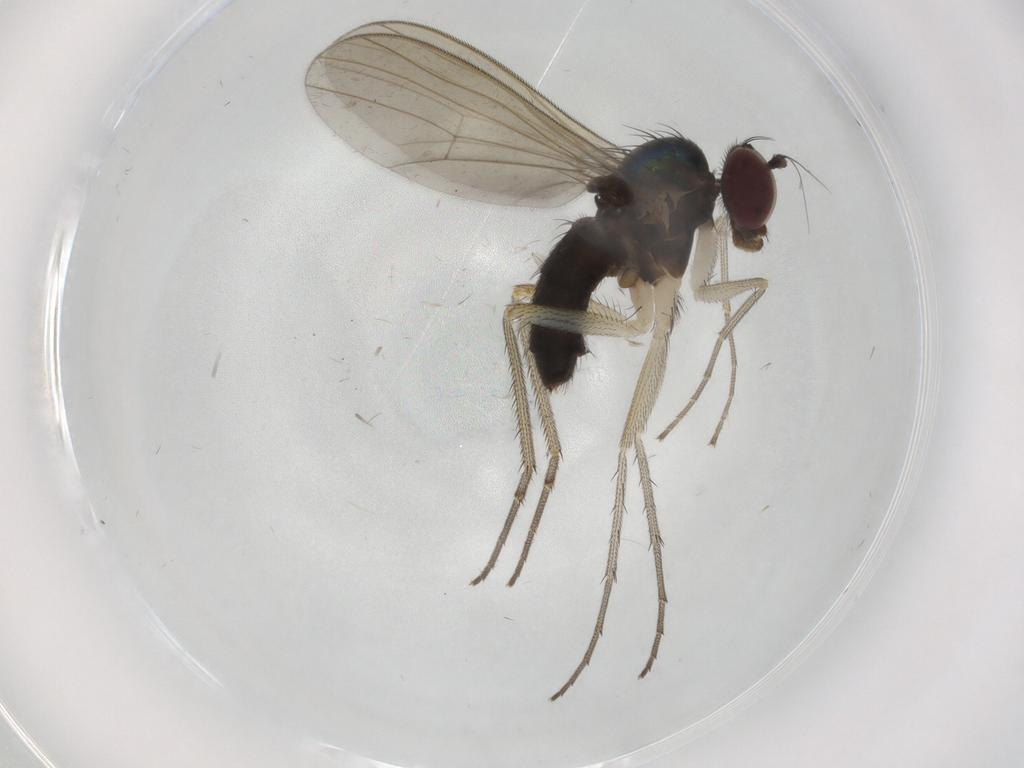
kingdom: Animalia
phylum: Arthropoda
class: Insecta
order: Diptera
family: Dolichopodidae
